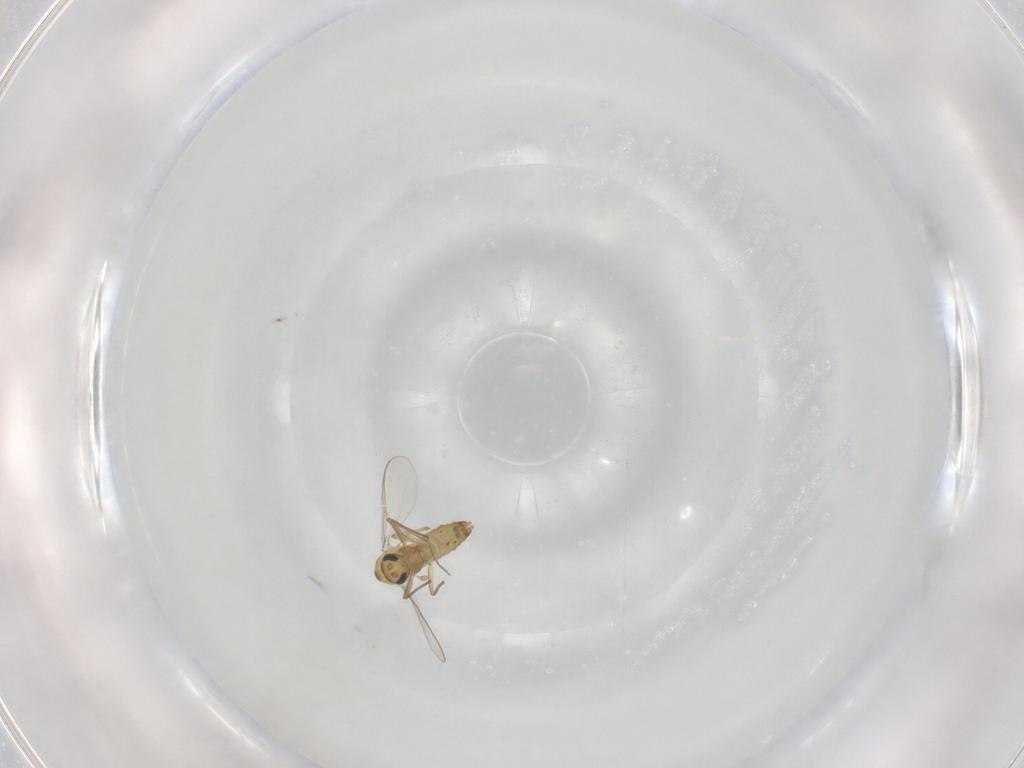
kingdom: Animalia
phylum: Arthropoda
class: Insecta
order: Diptera
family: Chironomidae
